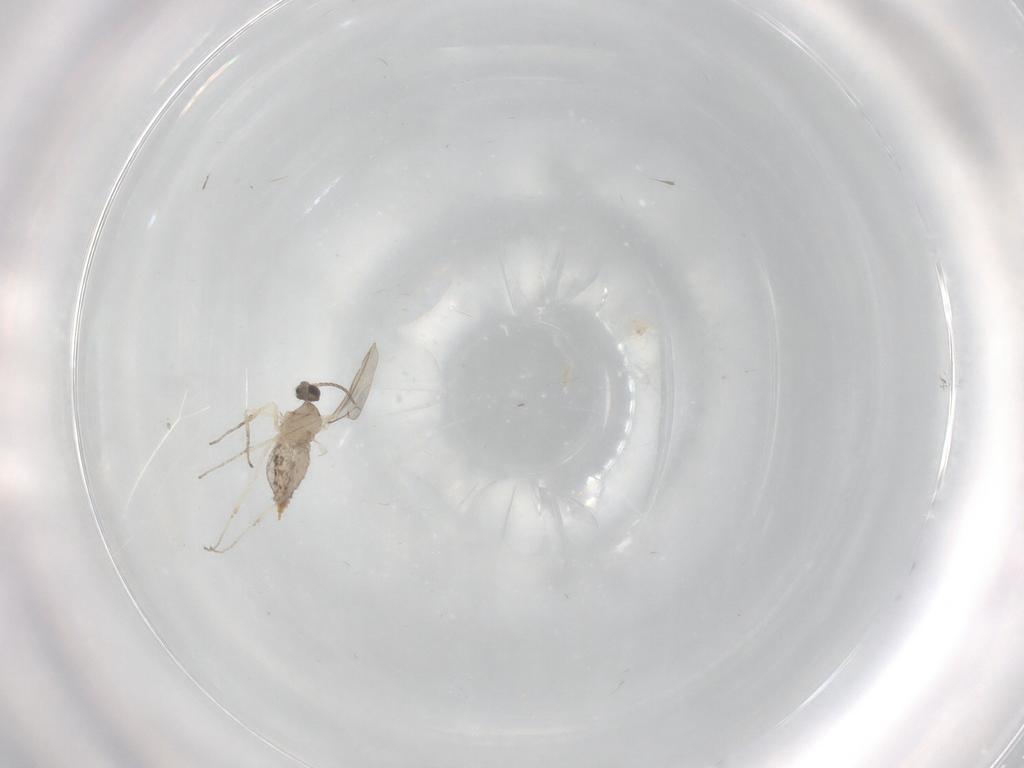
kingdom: Animalia
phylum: Arthropoda
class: Insecta
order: Diptera
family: Cecidomyiidae
